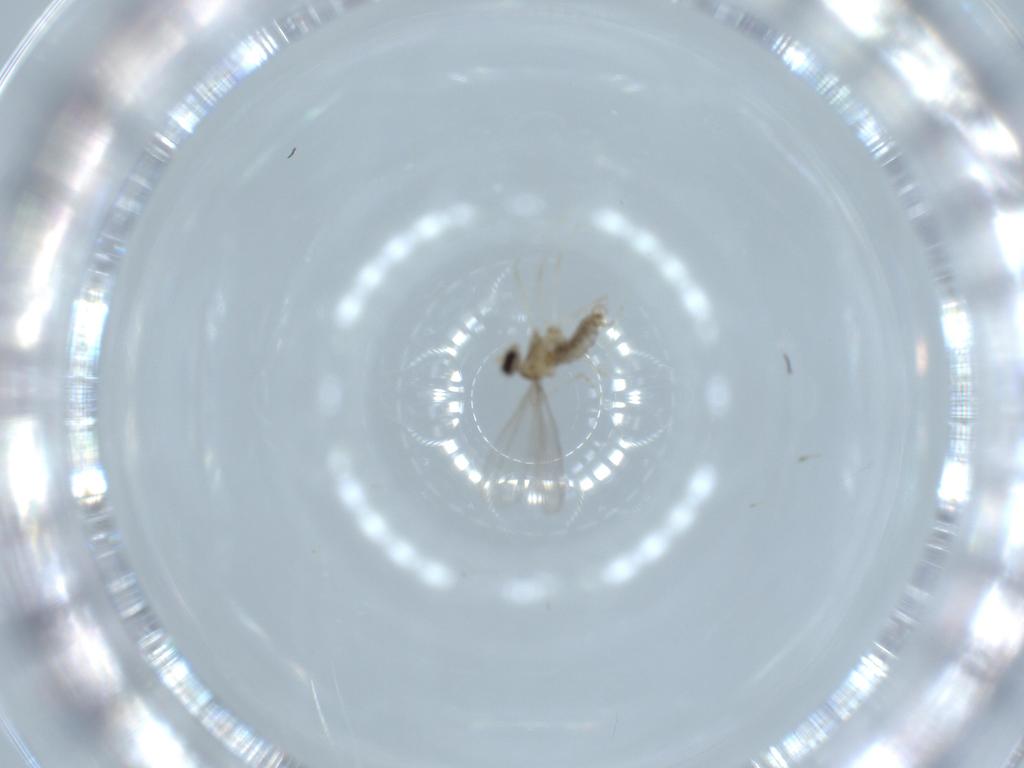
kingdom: Animalia
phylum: Arthropoda
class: Insecta
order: Diptera
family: Cecidomyiidae
